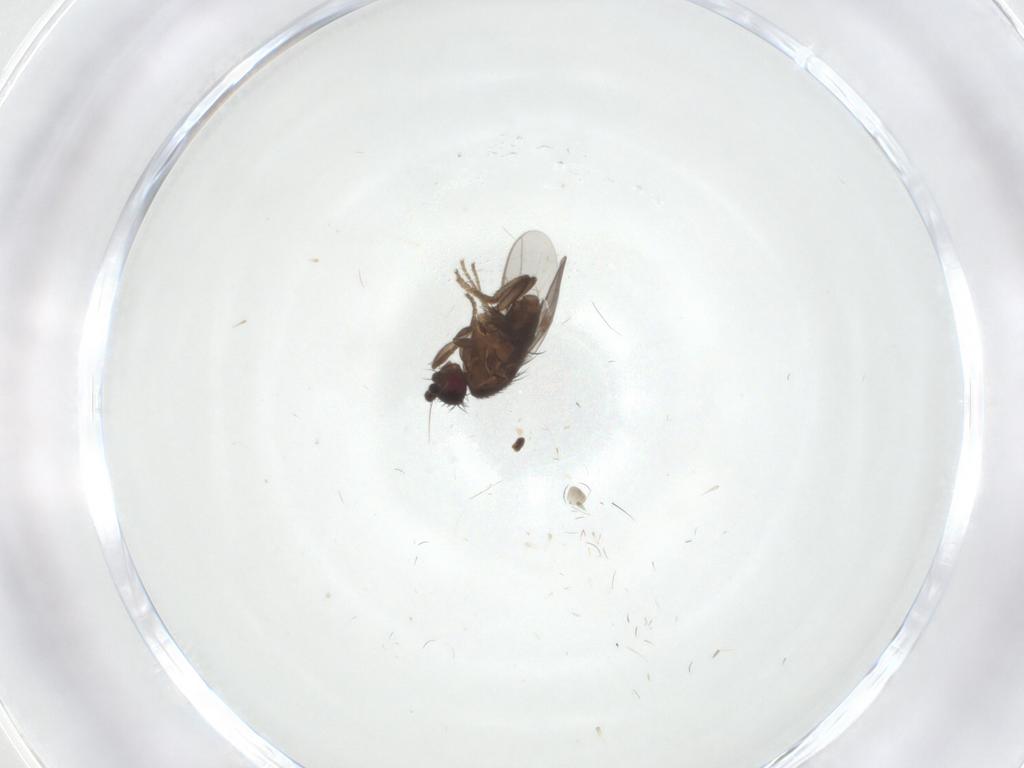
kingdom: Animalia
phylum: Arthropoda
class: Insecta
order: Diptera
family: Sphaeroceridae
